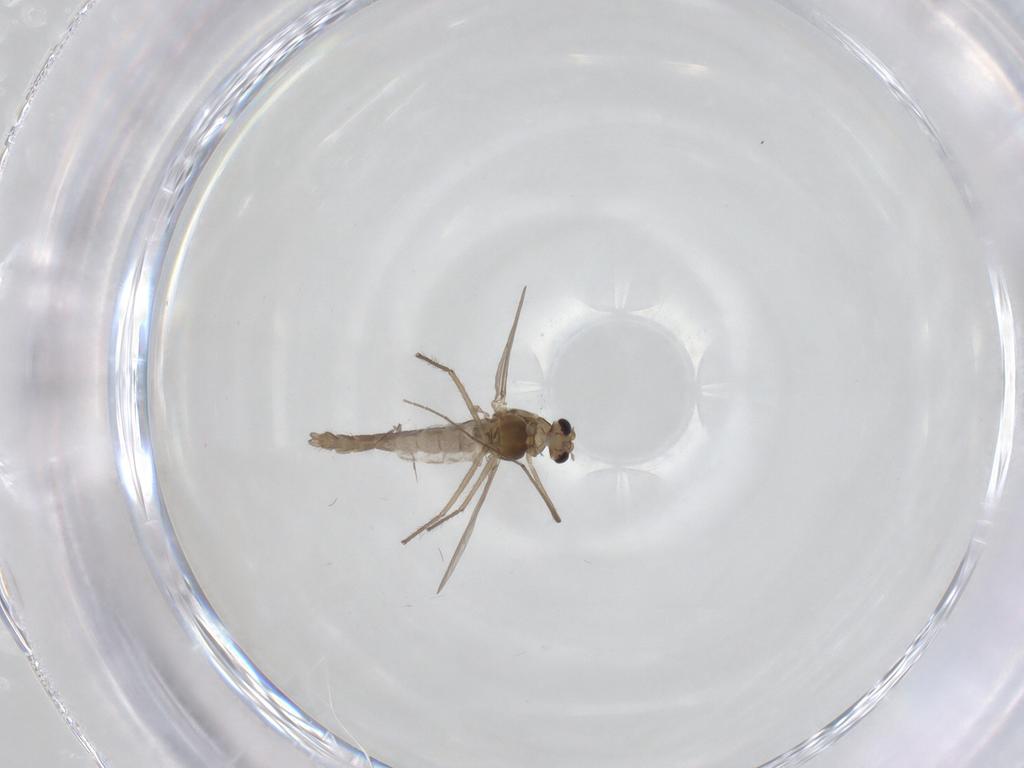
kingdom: Animalia
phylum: Arthropoda
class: Insecta
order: Diptera
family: Chironomidae
